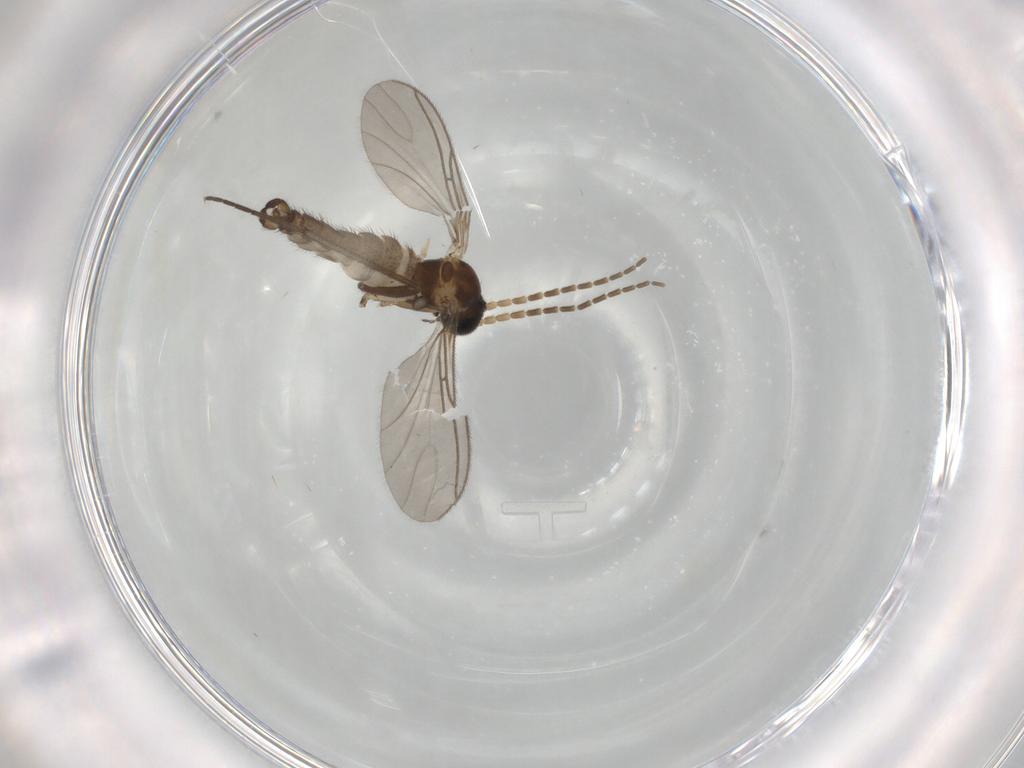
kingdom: Animalia
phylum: Arthropoda
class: Insecta
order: Diptera
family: Sciaridae
